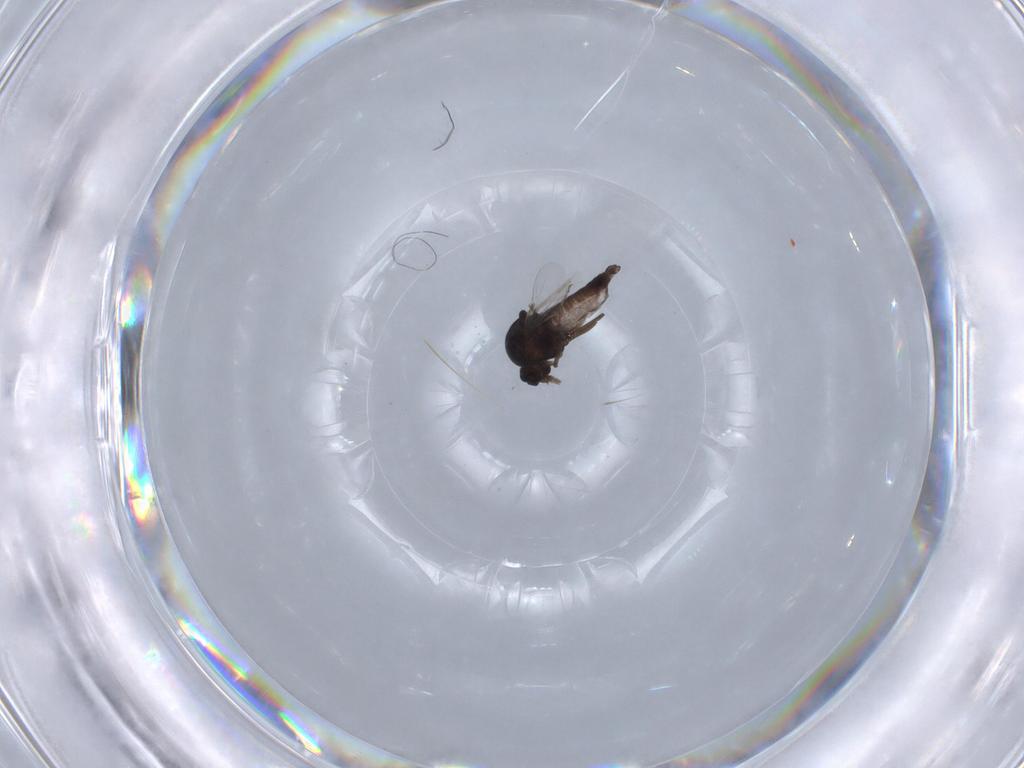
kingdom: Animalia
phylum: Arthropoda
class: Insecta
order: Diptera
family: Ceratopogonidae
